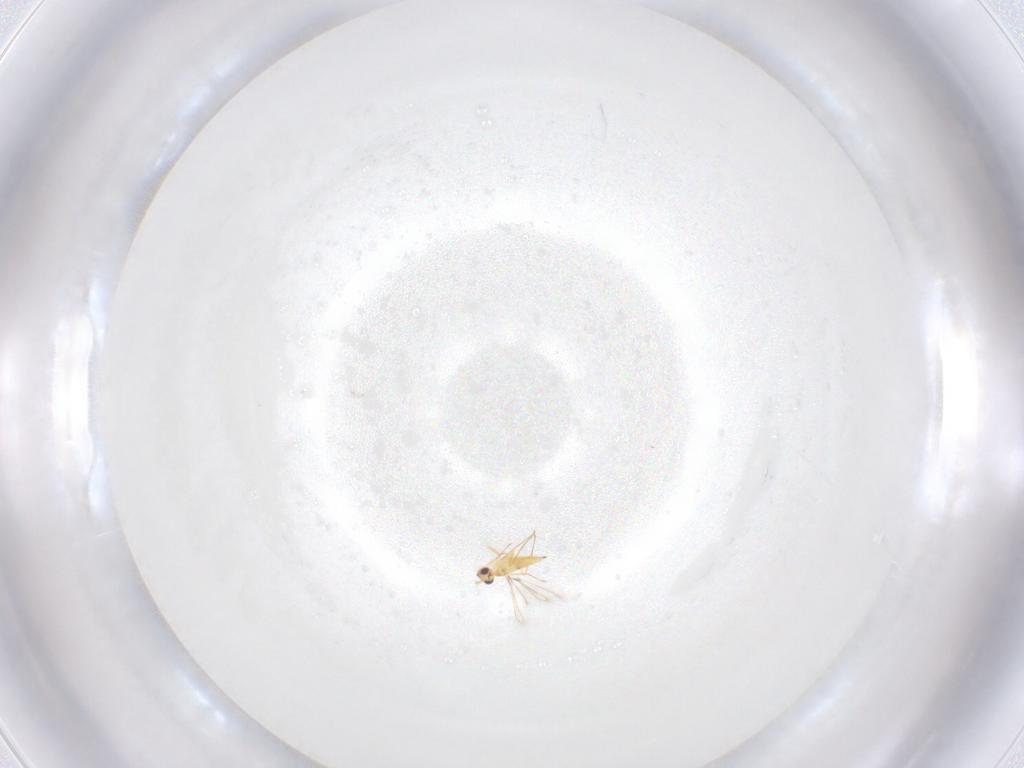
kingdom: Animalia
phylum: Arthropoda
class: Insecta
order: Hymenoptera
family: Mymaridae
